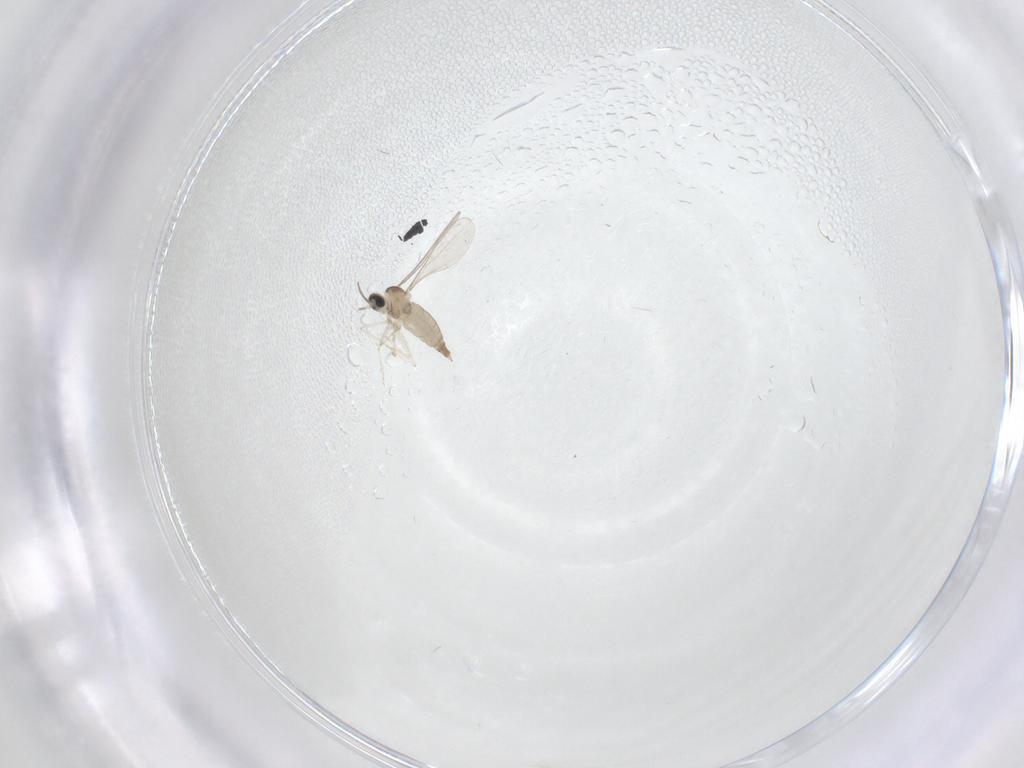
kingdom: Animalia
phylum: Arthropoda
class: Insecta
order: Diptera
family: Cecidomyiidae
